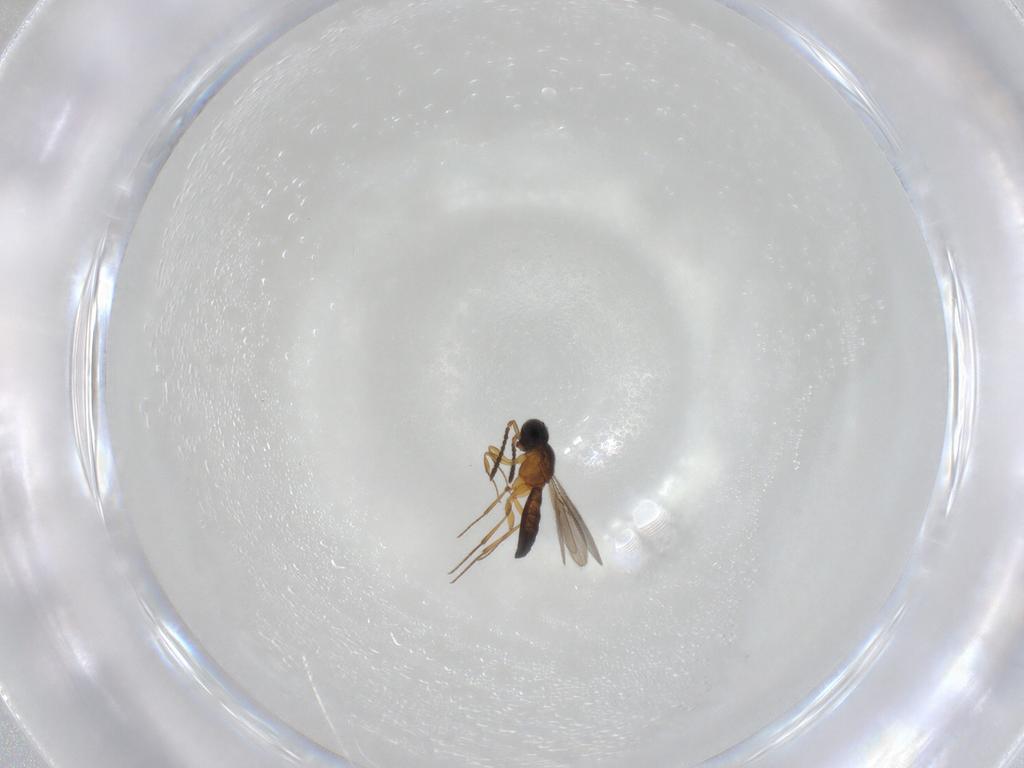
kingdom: Animalia
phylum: Arthropoda
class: Insecta
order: Hymenoptera
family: Scelionidae
